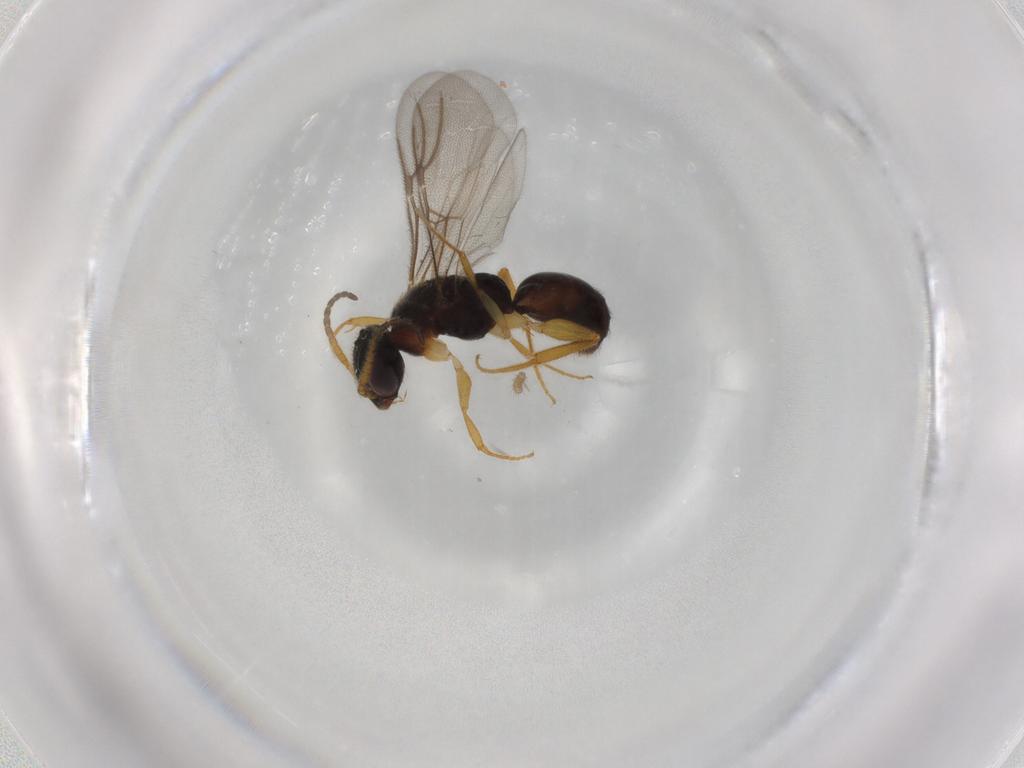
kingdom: Animalia
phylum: Arthropoda
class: Insecta
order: Hymenoptera
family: Bethylidae
